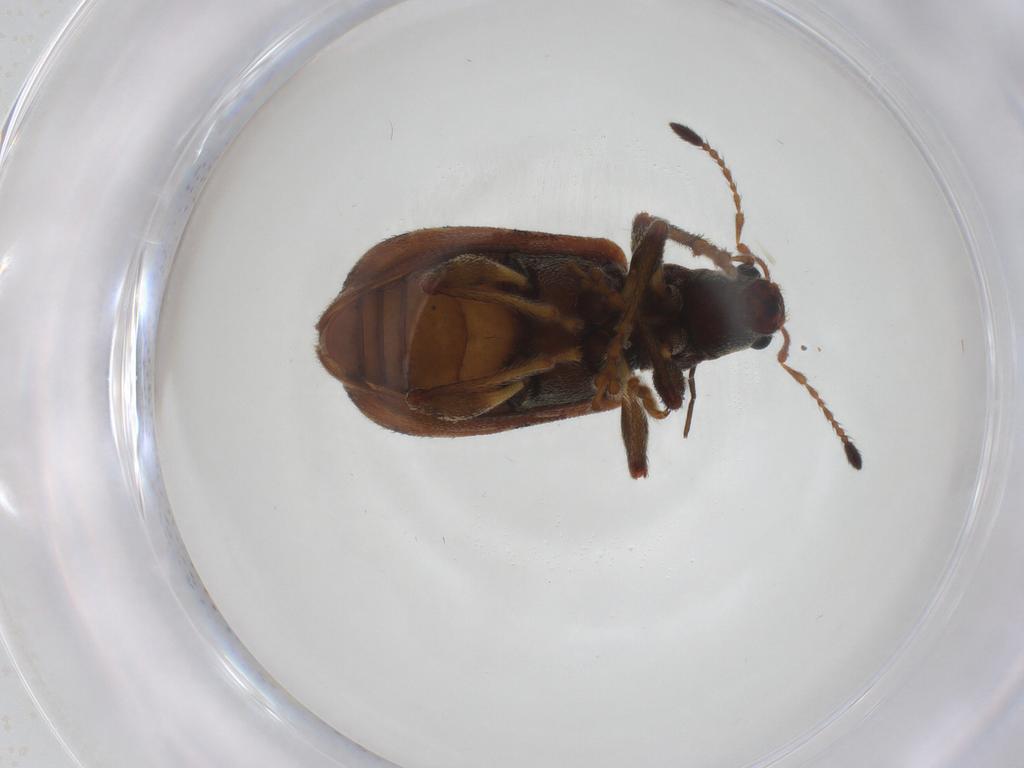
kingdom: Animalia
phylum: Arthropoda
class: Insecta
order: Coleoptera
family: Curculionidae
